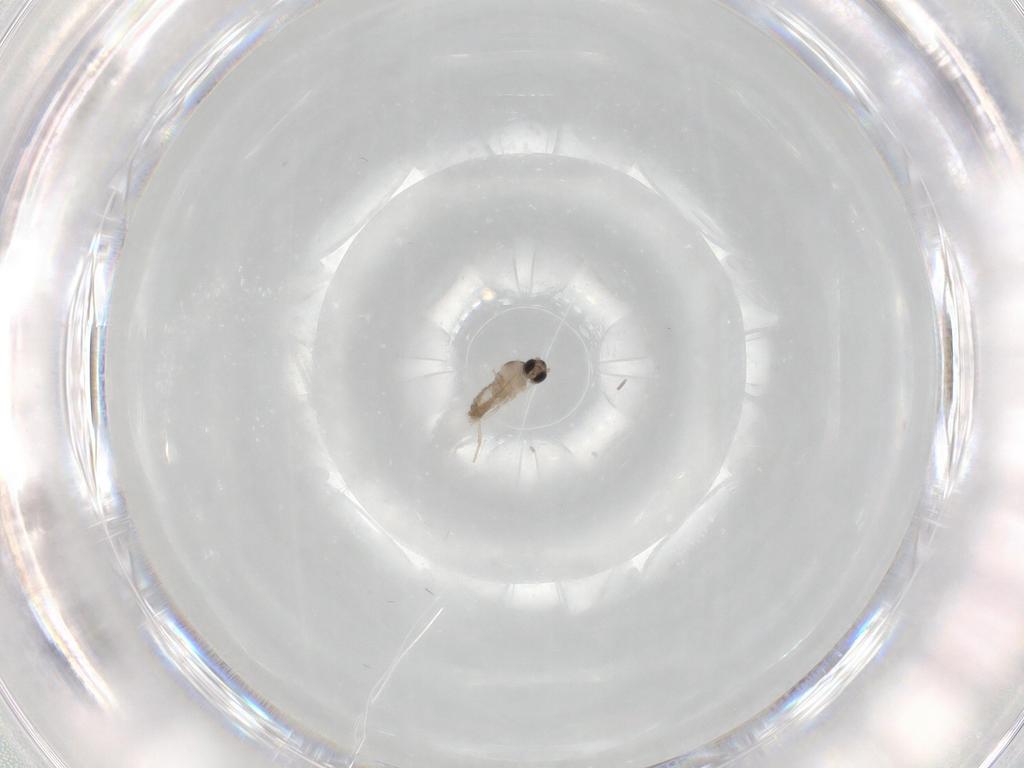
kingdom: Animalia
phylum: Arthropoda
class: Insecta
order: Diptera
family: Cecidomyiidae
